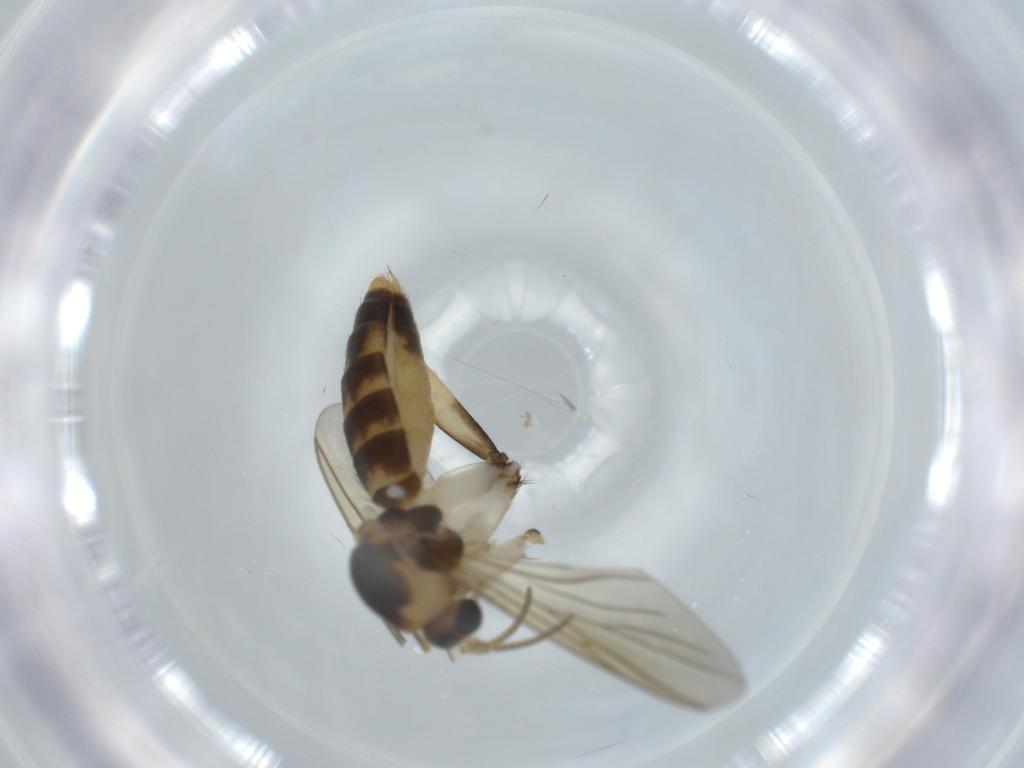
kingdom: Animalia
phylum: Arthropoda
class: Insecta
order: Diptera
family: Mycetophilidae
